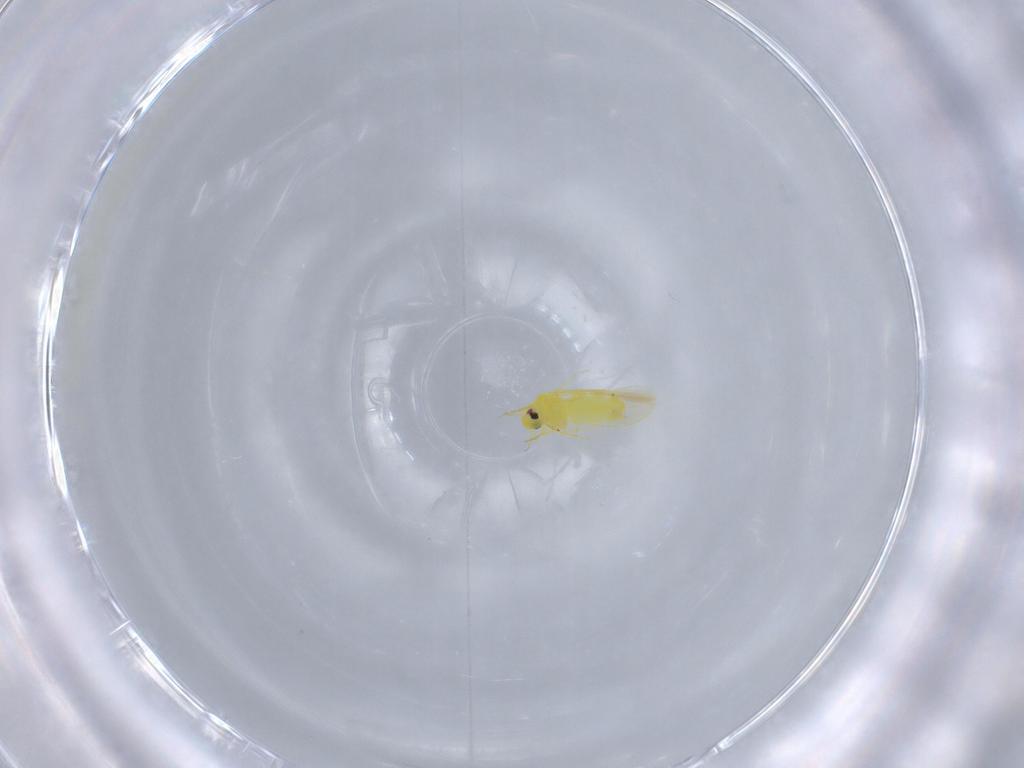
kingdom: Animalia
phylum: Arthropoda
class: Insecta
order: Hemiptera
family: Aleyrodidae
